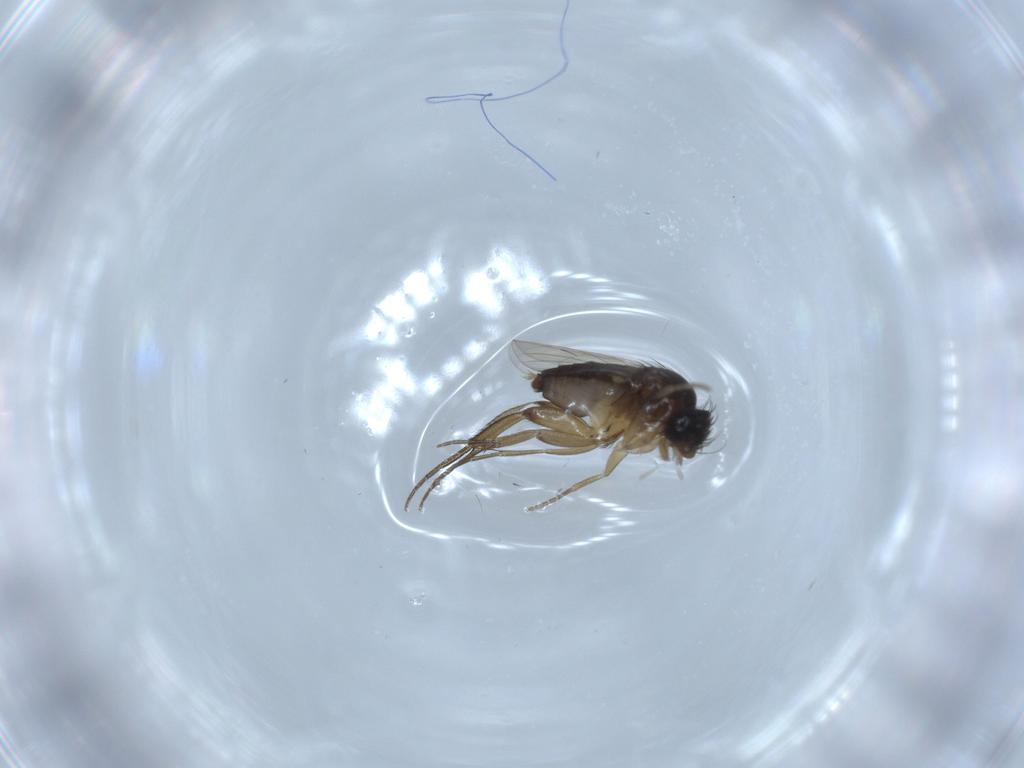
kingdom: Animalia
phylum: Arthropoda
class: Insecta
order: Diptera
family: Phoridae
